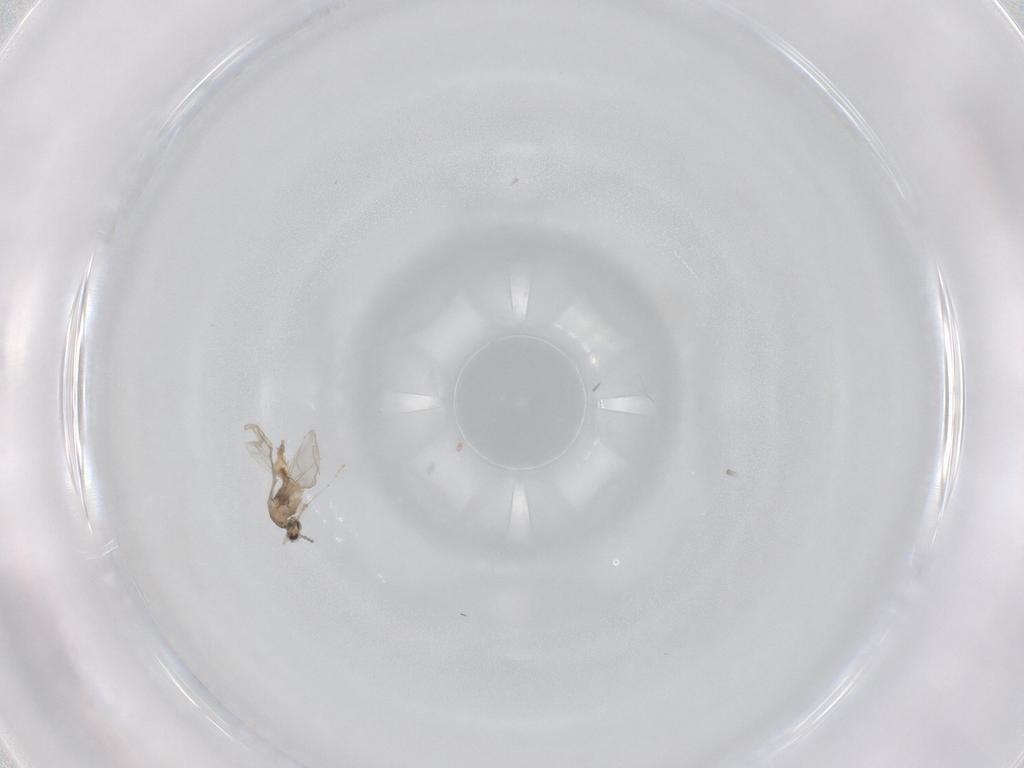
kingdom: Animalia
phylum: Arthropoda
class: Insecta
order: Diptera
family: Cecidomyiidae
